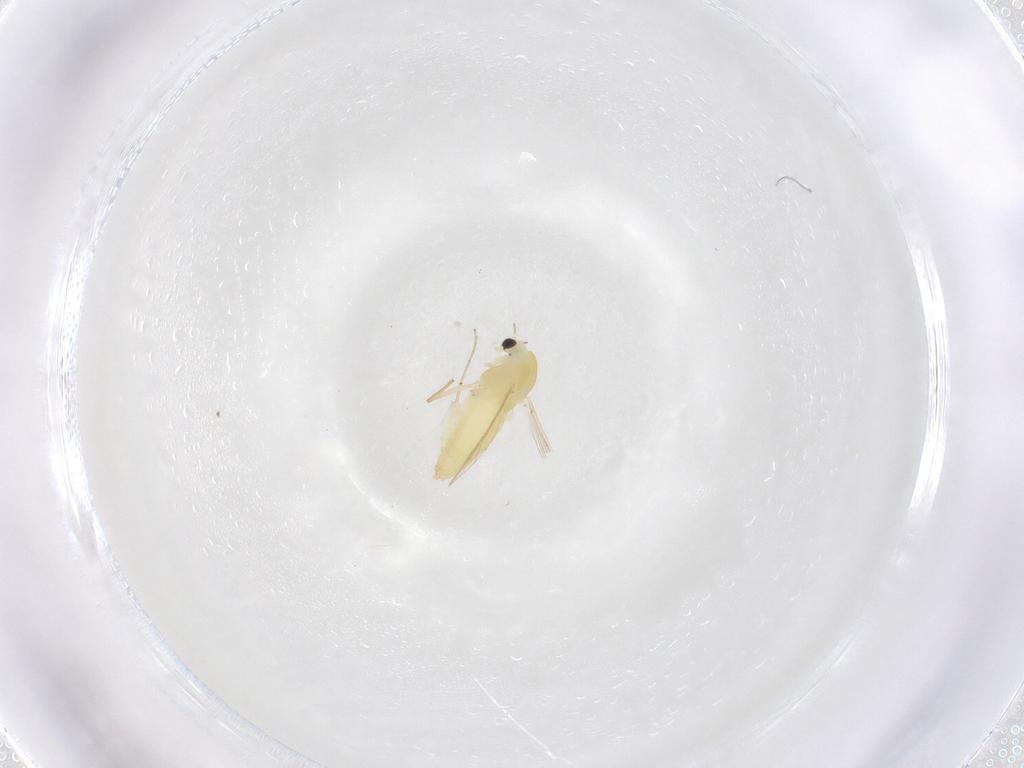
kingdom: Animalia
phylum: Arthropoda
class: Insecta
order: Diptera
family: Chironomidae
